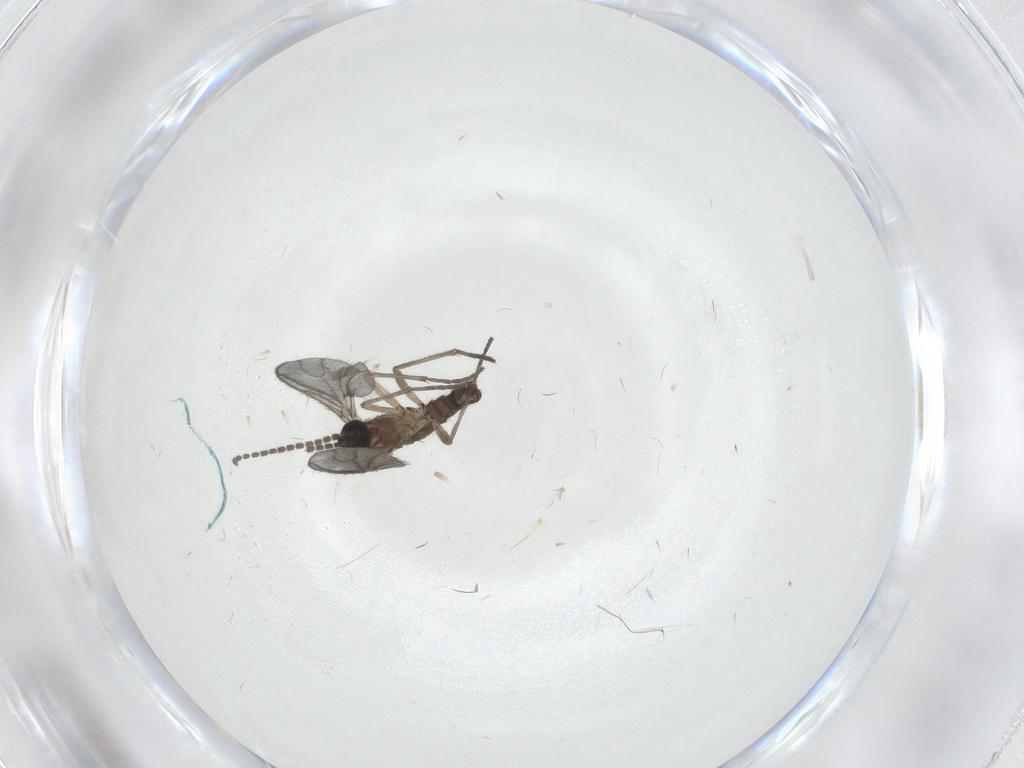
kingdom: Animalia
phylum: Arthropoda
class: Insecta
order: Diptera
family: Sciaridae
